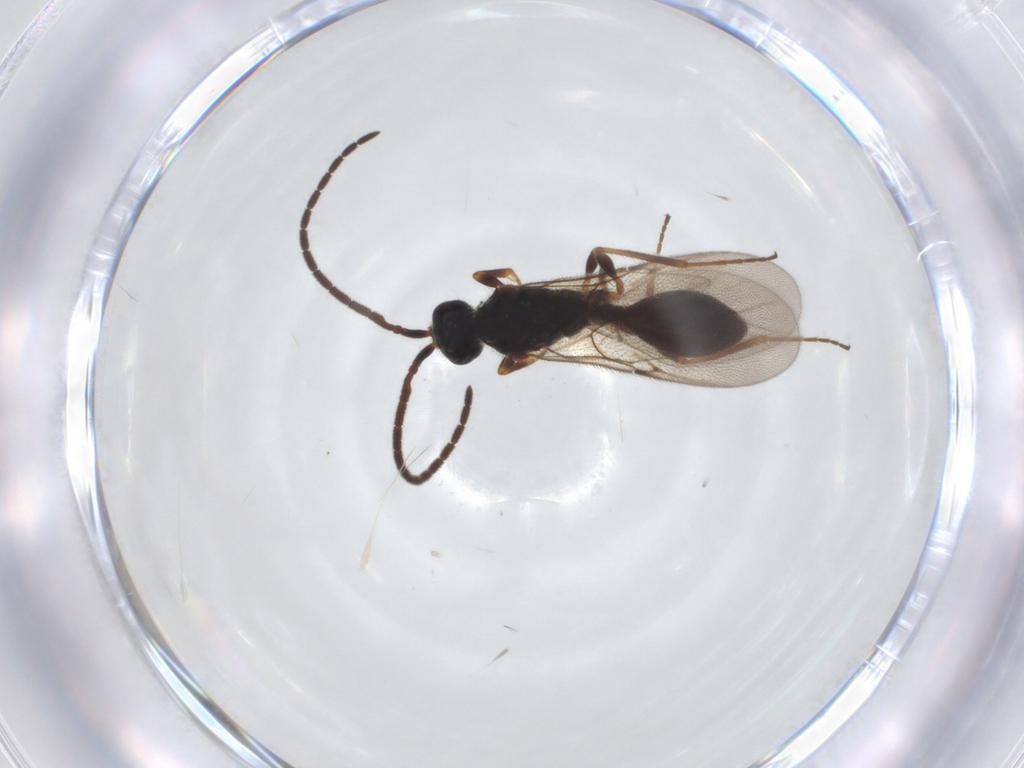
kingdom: Animalia
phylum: Arthropoda
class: Insecta
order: Hymenoptera
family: Diapriidae
